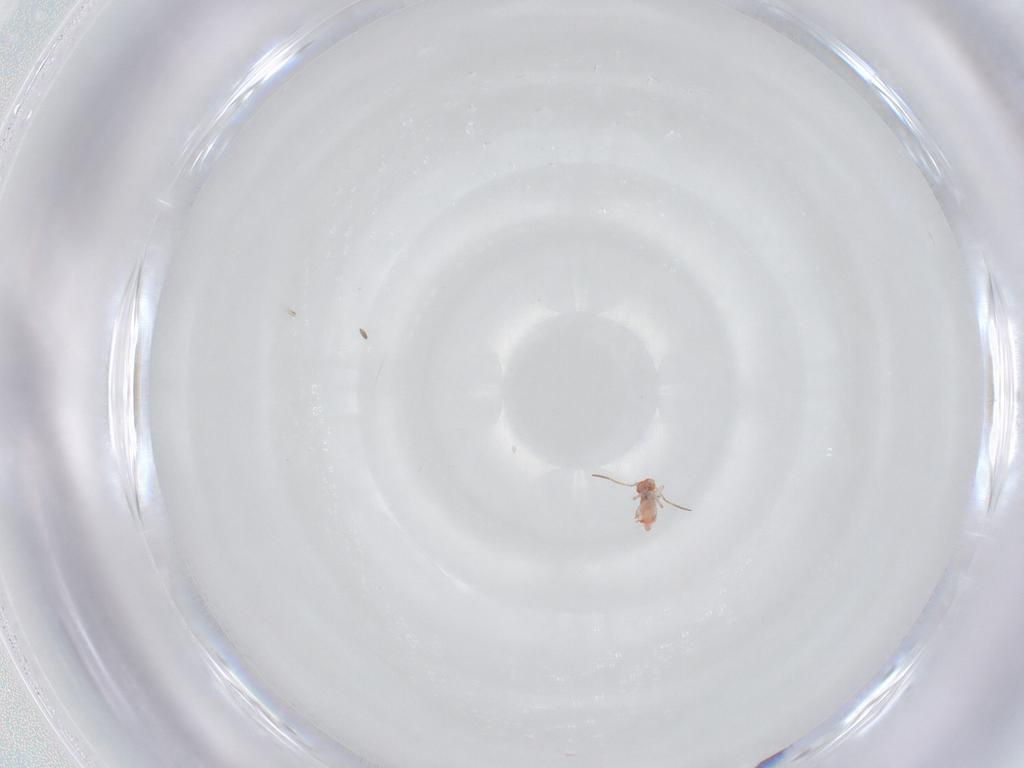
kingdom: Animalia
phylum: Arthropoda
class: Collembola
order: Symphypleona
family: Bourletiellidae
